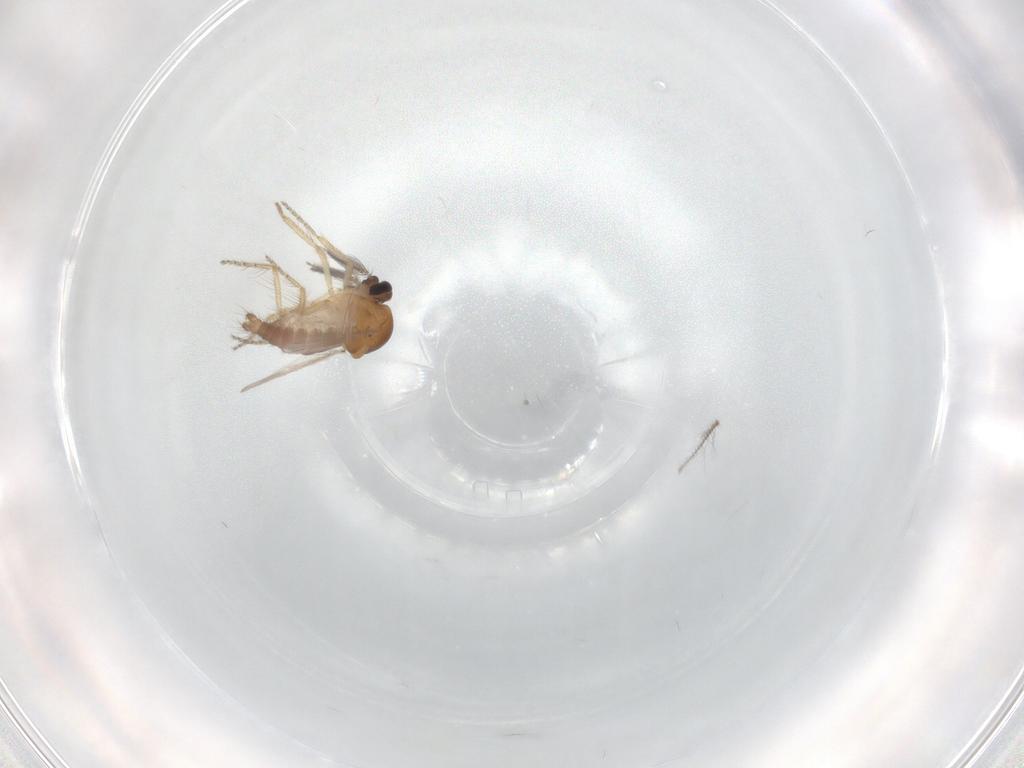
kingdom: Animalia
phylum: Arthropoda
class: Insecta
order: Diptera
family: Ceratopogonidae
